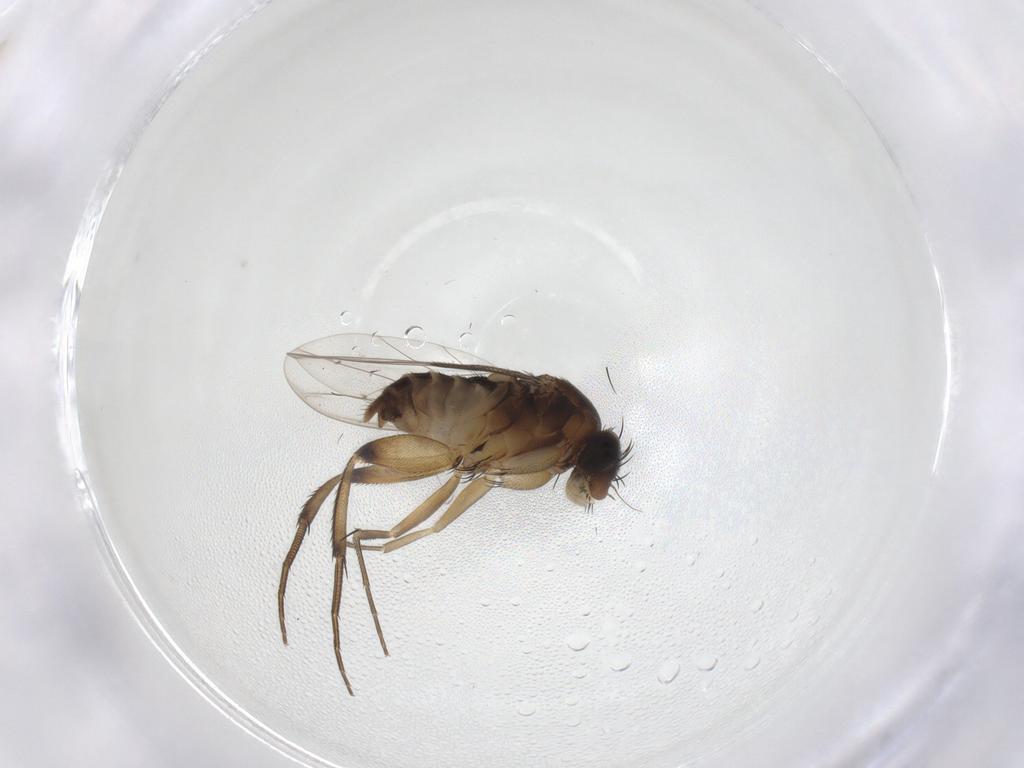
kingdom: Animalia
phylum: Arthropoda
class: Insecta
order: Diptera
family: Phoridae
